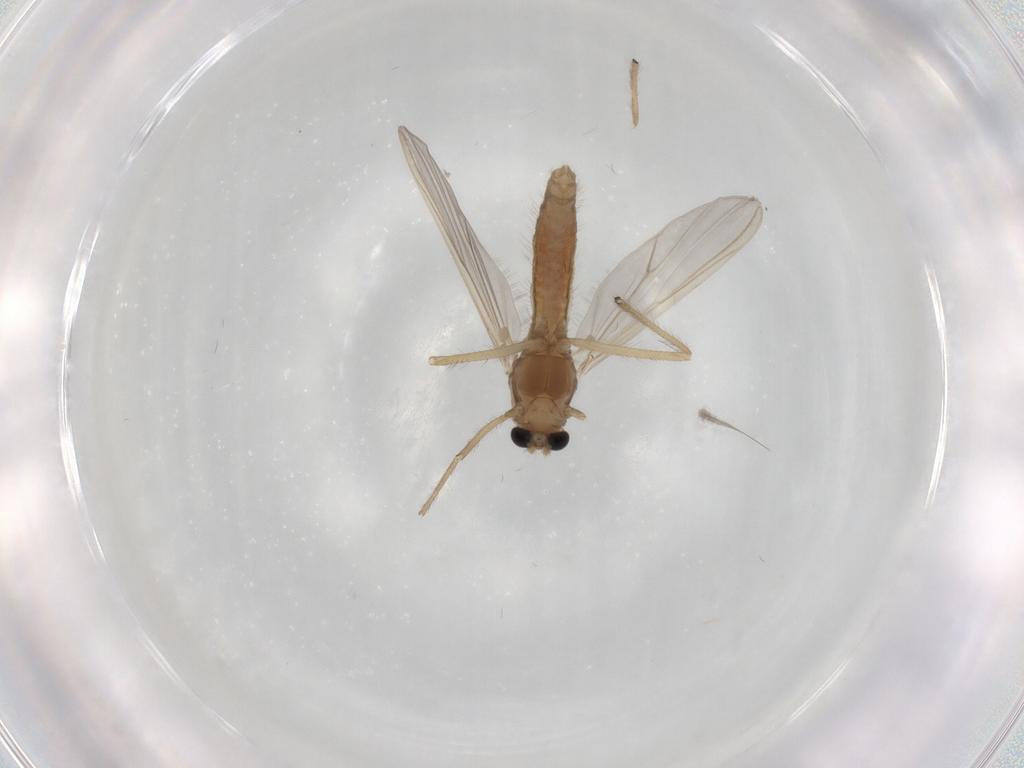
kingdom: Animalia
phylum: Arthropoda
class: Insecta
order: Diptera
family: Chironomidae
